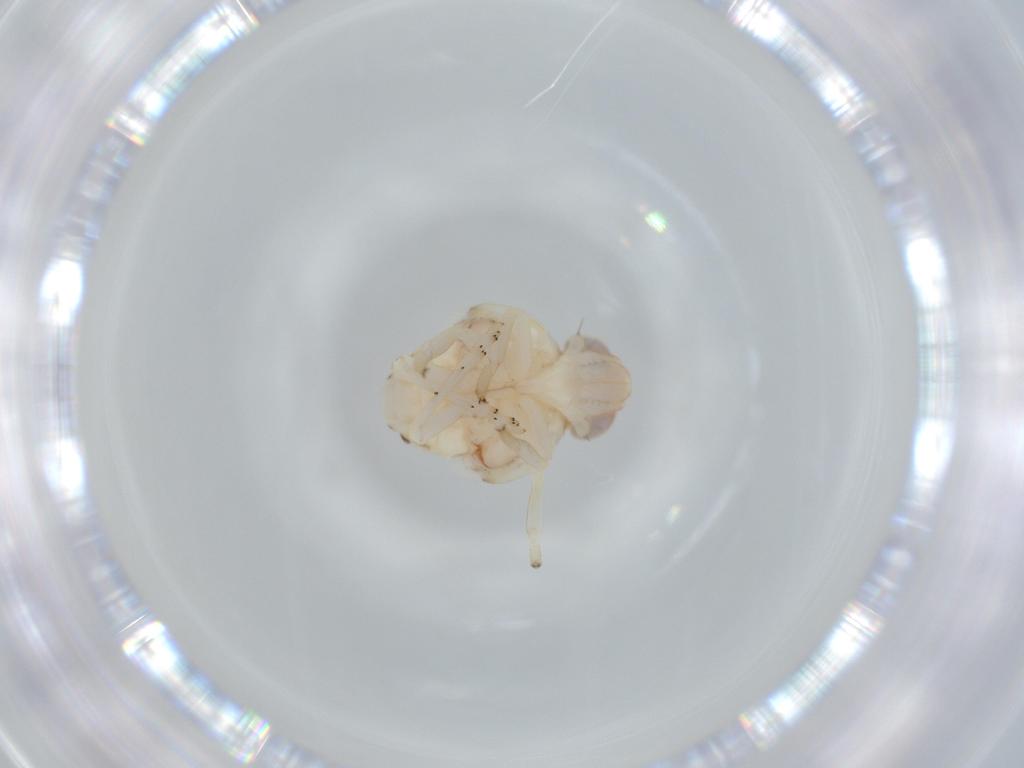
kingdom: Animalia
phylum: Arthropoda
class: Insecta
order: Hemiptera
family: Nogodinidae
